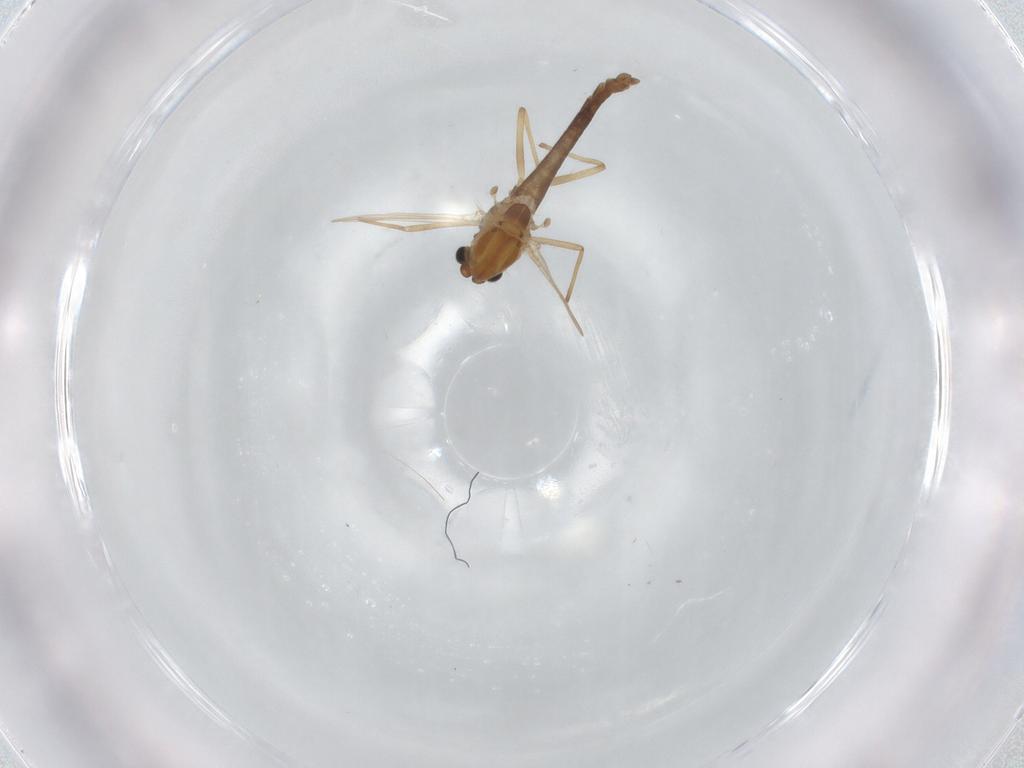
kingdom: Animalia
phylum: Arthropoda
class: Insecta
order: Diptera
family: Chironomidae
